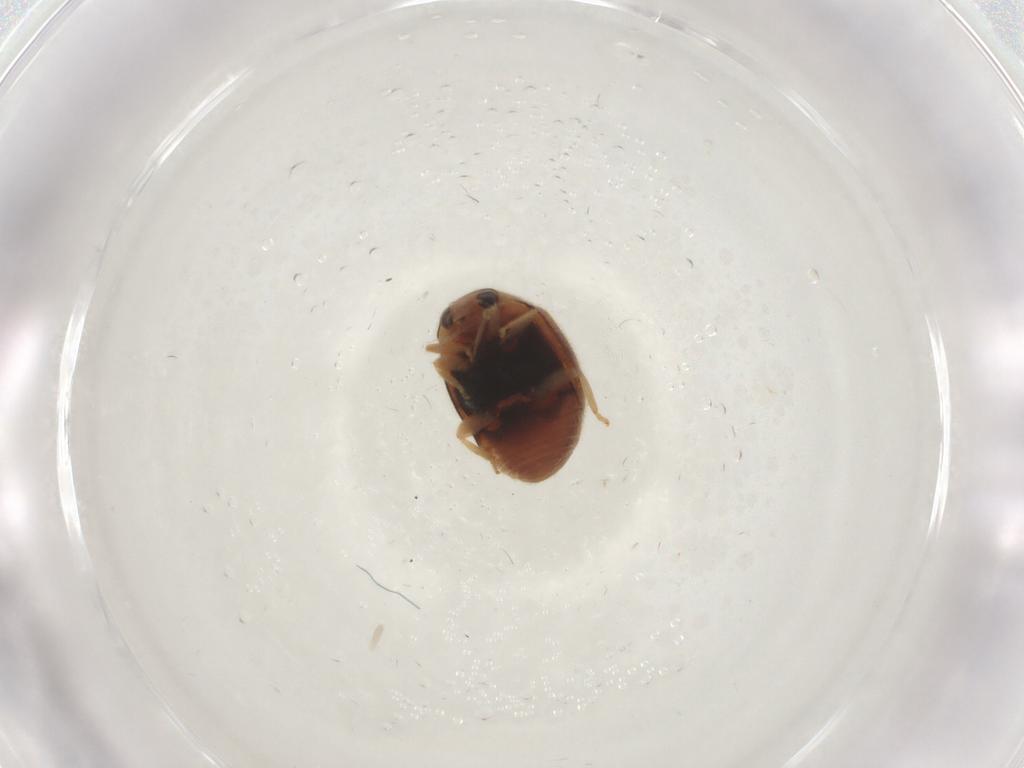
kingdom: Animalia
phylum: Arthropoda
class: Insecta
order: Coleoptera
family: Coccinellidae
